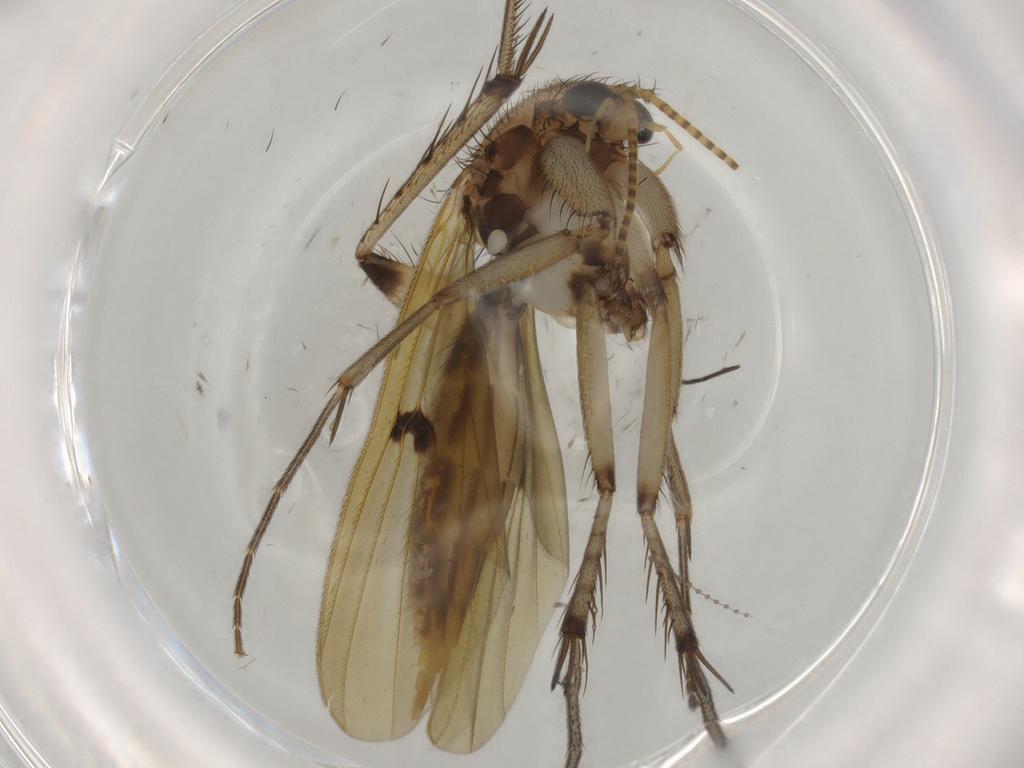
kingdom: Animalia
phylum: Arthropoda
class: Insecta
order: Diptera
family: Mycetophilidae
